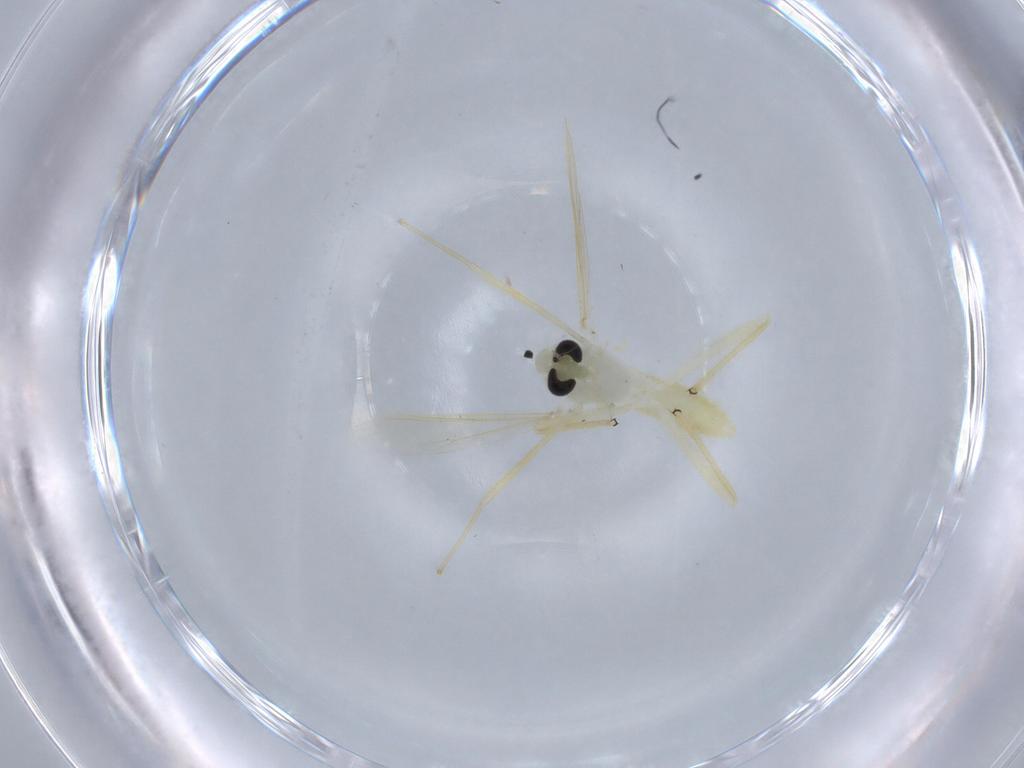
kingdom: Animalia
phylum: Arthropoda
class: Insecta
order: Diptera
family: Chironomidae
